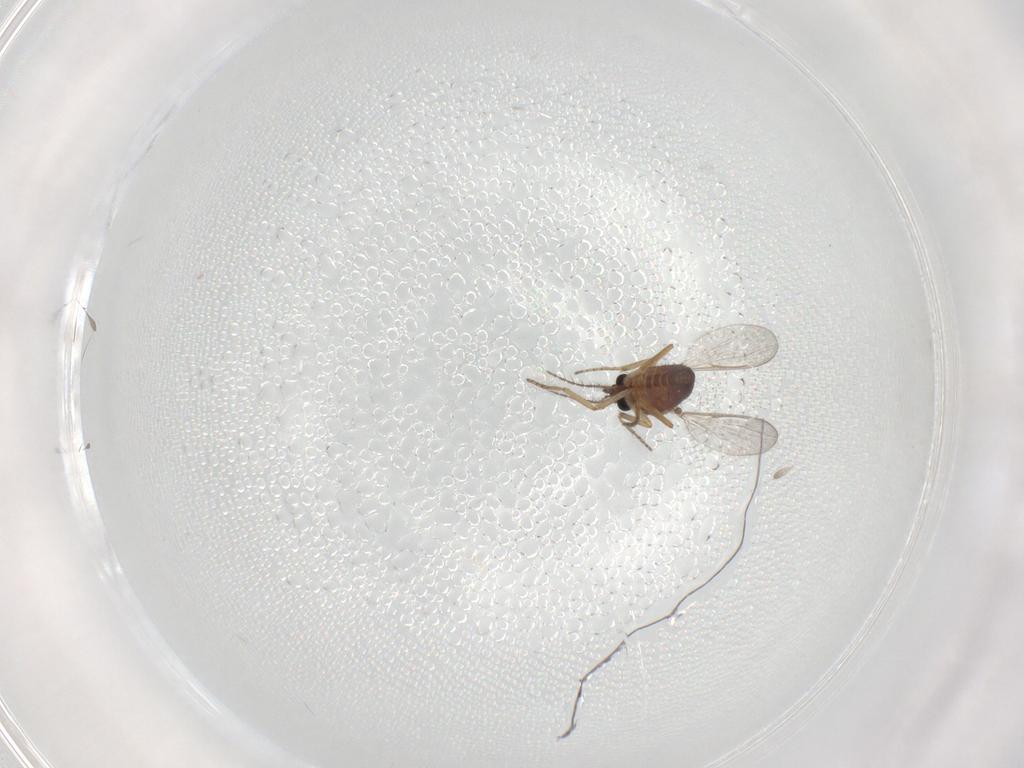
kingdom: Animalia
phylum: Arthropoda
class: Insecta
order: Diptera
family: Ceratopogonidae
